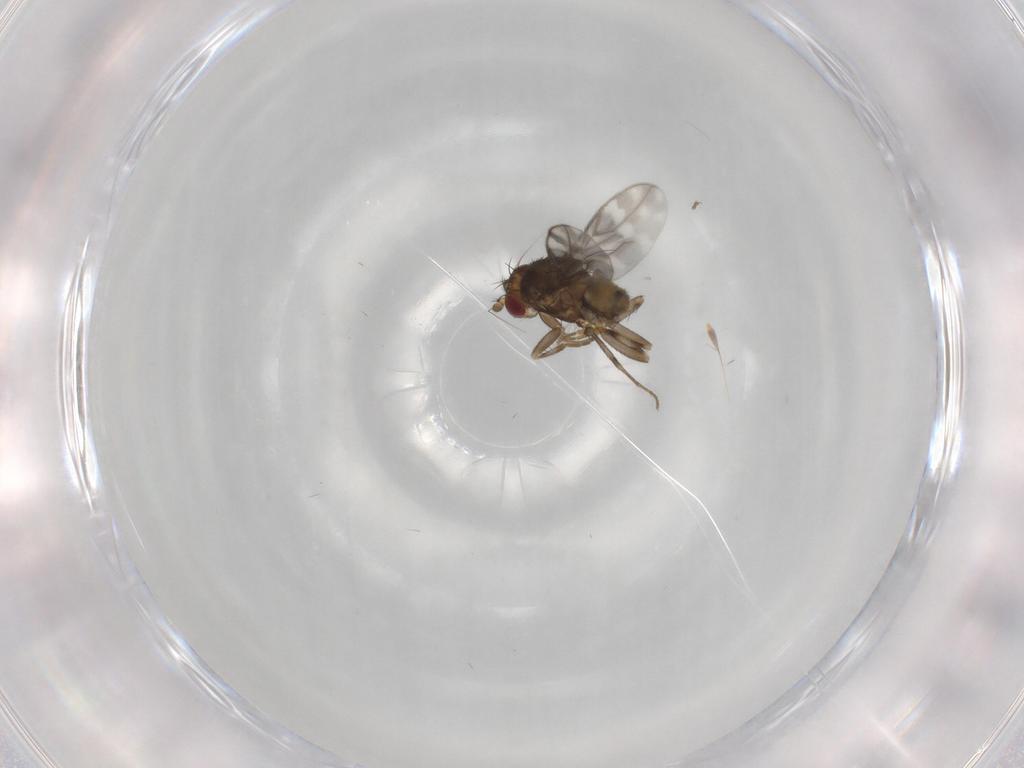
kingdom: Animalia
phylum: Arthropoda
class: Insecta
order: Diptera
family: Sphaeroceridae
